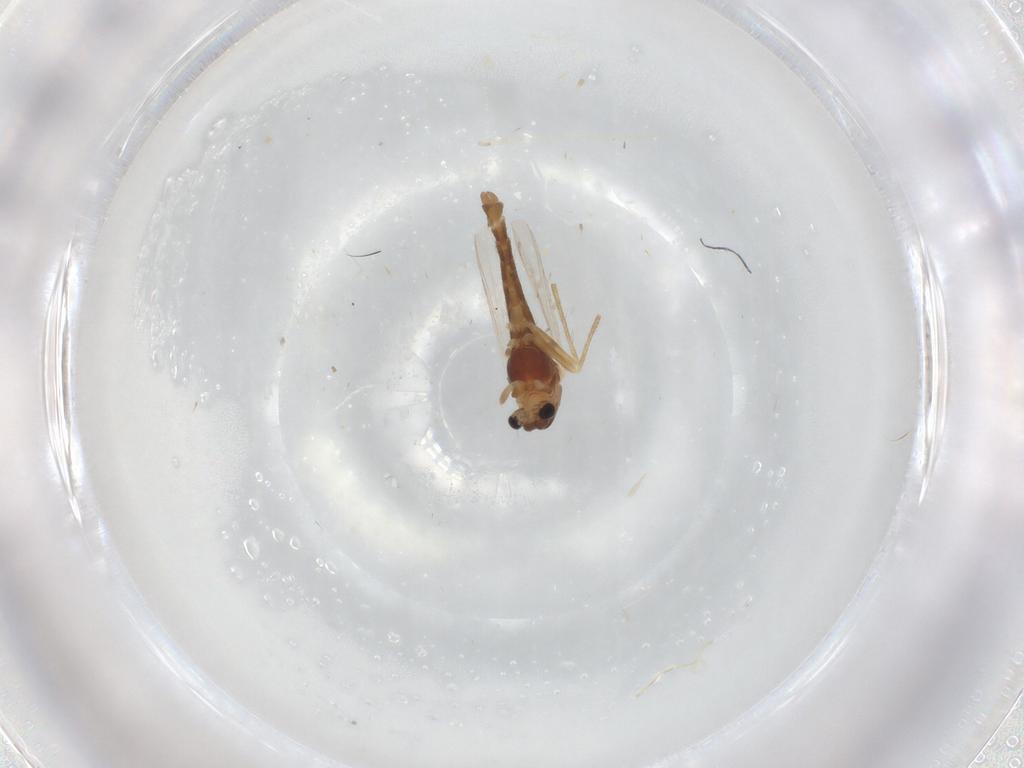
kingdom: Animalia
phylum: Arthropoda
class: Insecta
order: Diptera
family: Chironomidae
